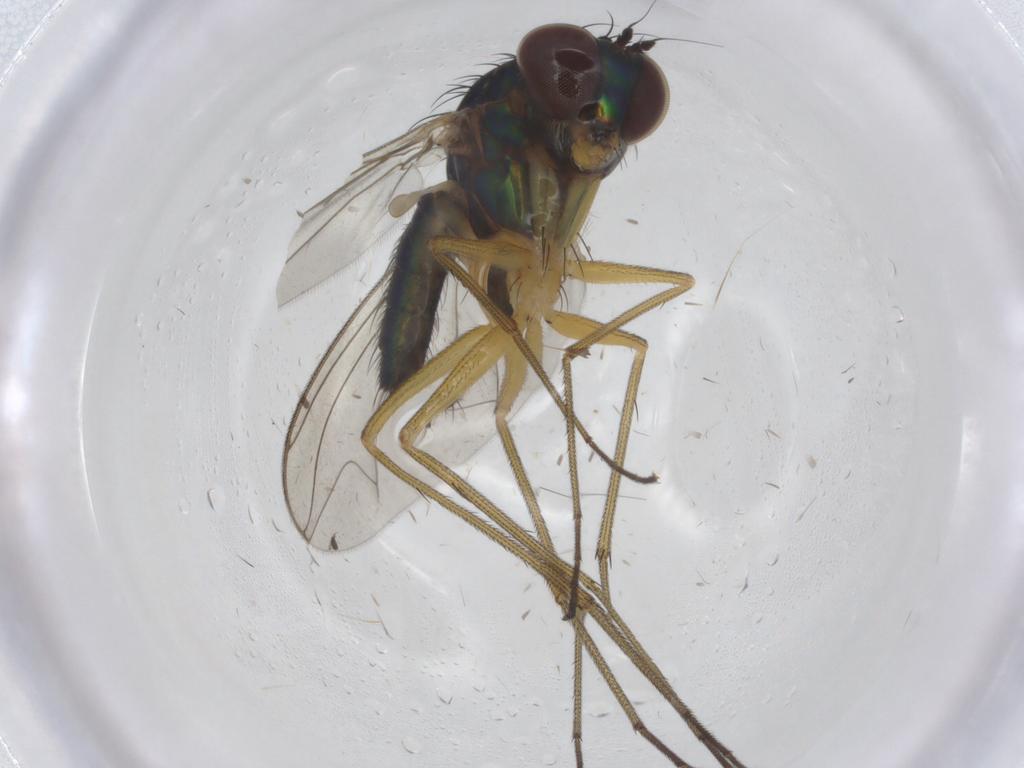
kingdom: Animalia
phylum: Arthropoda
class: Insecta
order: Diptera
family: Dolichopodidae
